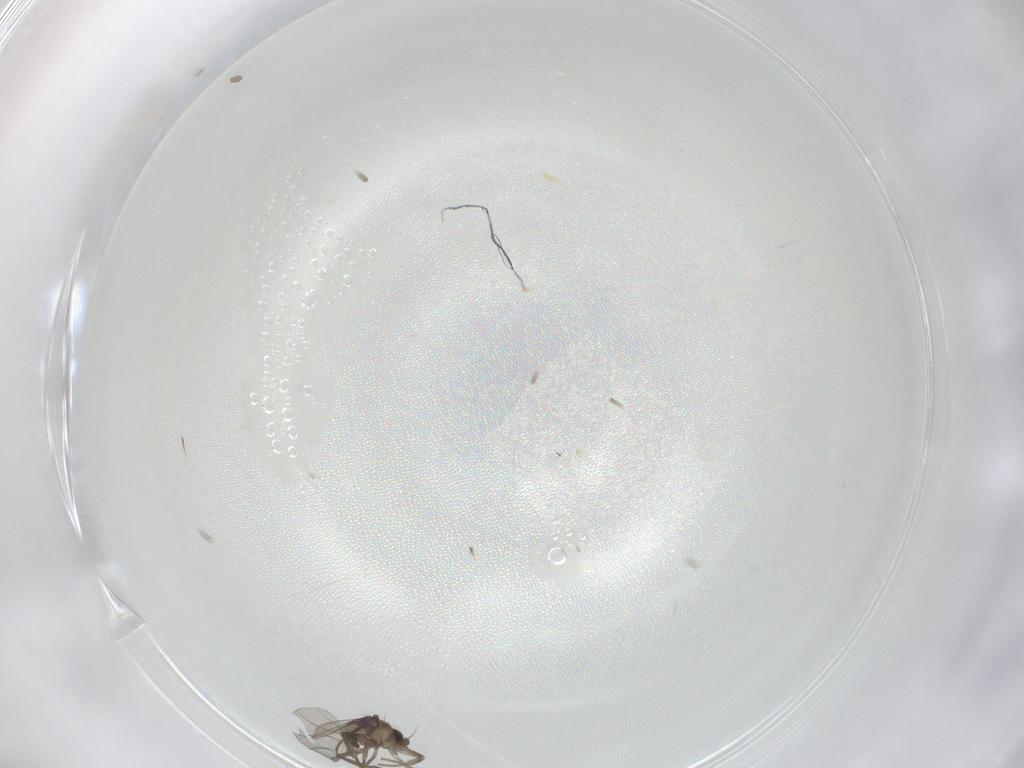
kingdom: Animalia
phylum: Arthropoda
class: Insecta
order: Diptera
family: Chironomidae
